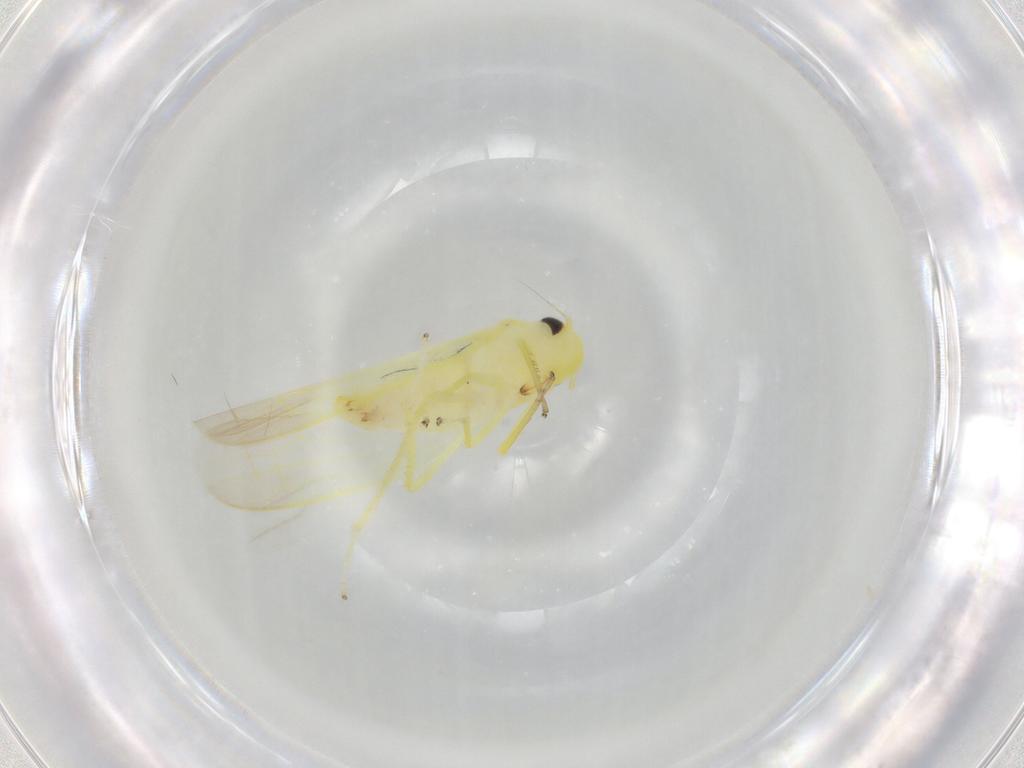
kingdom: Animalia
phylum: Arthropoda
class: Insecta
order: Hemiptera
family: Cicadellidae
